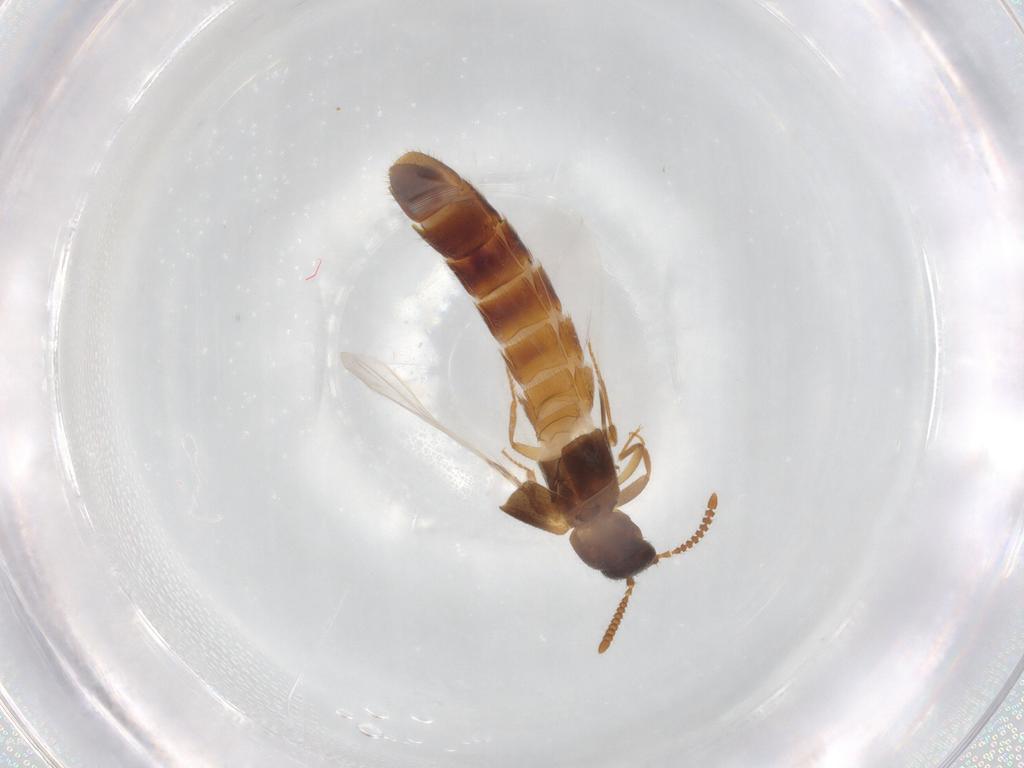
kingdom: Animalia
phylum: Arthropoda
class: Insecta
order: Coleoptera
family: Staphylinidae
